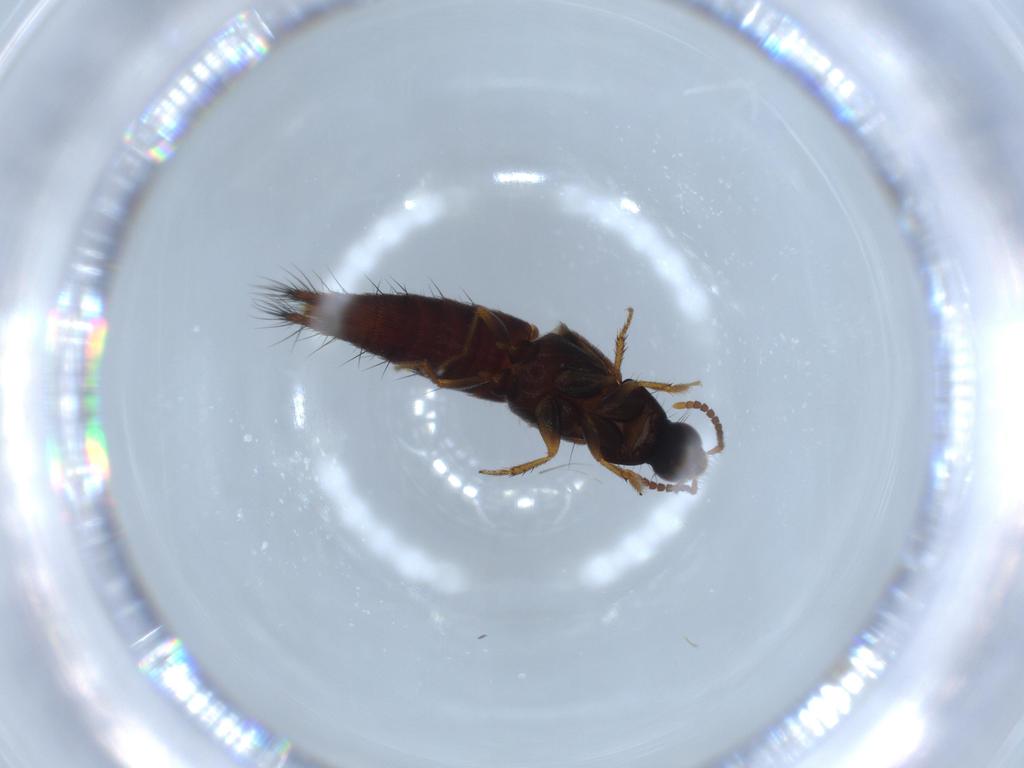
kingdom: Animalia
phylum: Arthropoda
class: Insecta
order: Coleoptera
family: Staphylinidae
